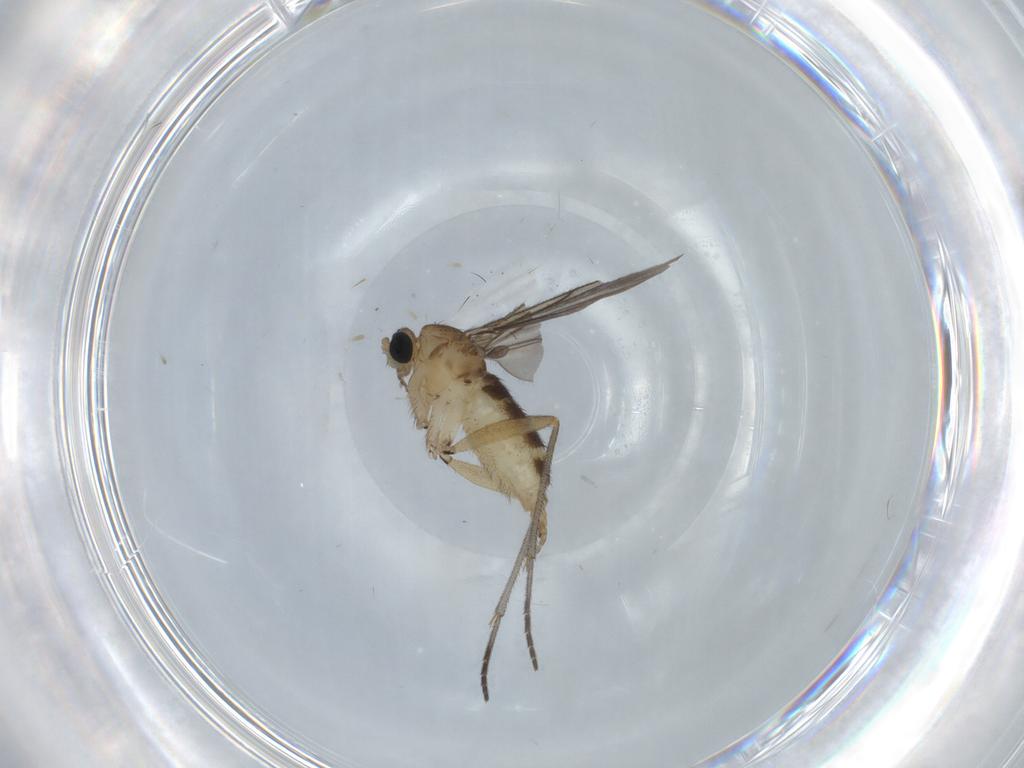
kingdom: Animalia
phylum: Arthropoda
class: Insecta
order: Diptera
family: Sciaridae
